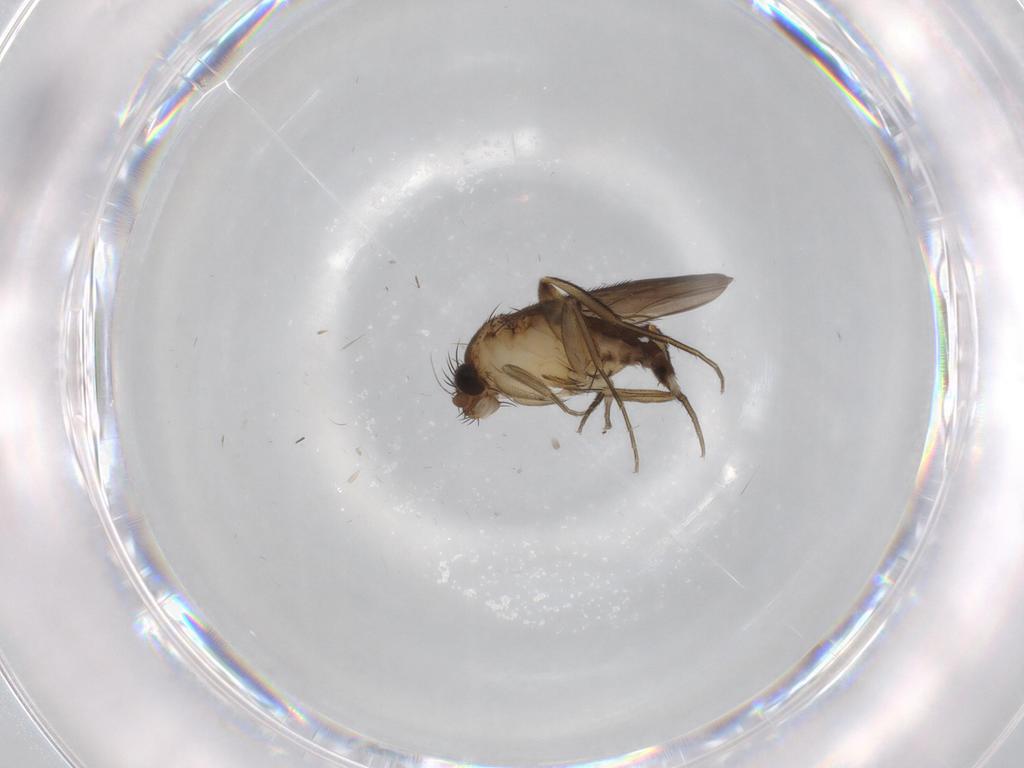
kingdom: Animalia
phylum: Arthropoda
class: Insecta
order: Diptera
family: Phoridae
